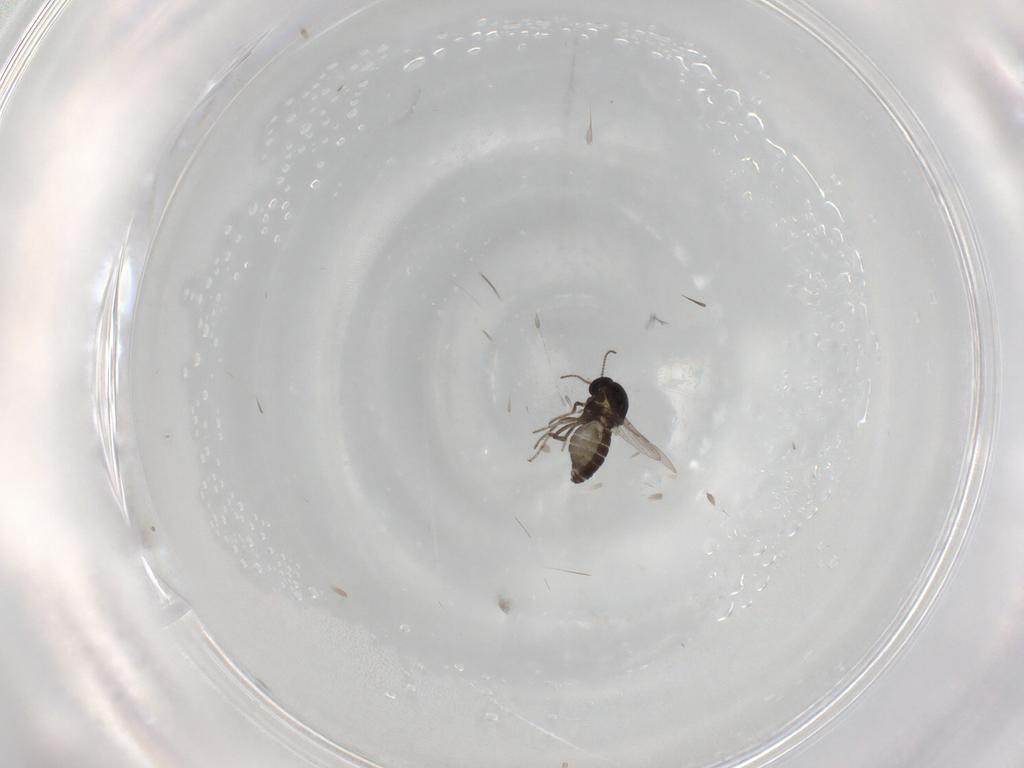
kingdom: Animalia
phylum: Arthropoda
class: Insecta
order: Diptera
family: Ceratopogonidae
